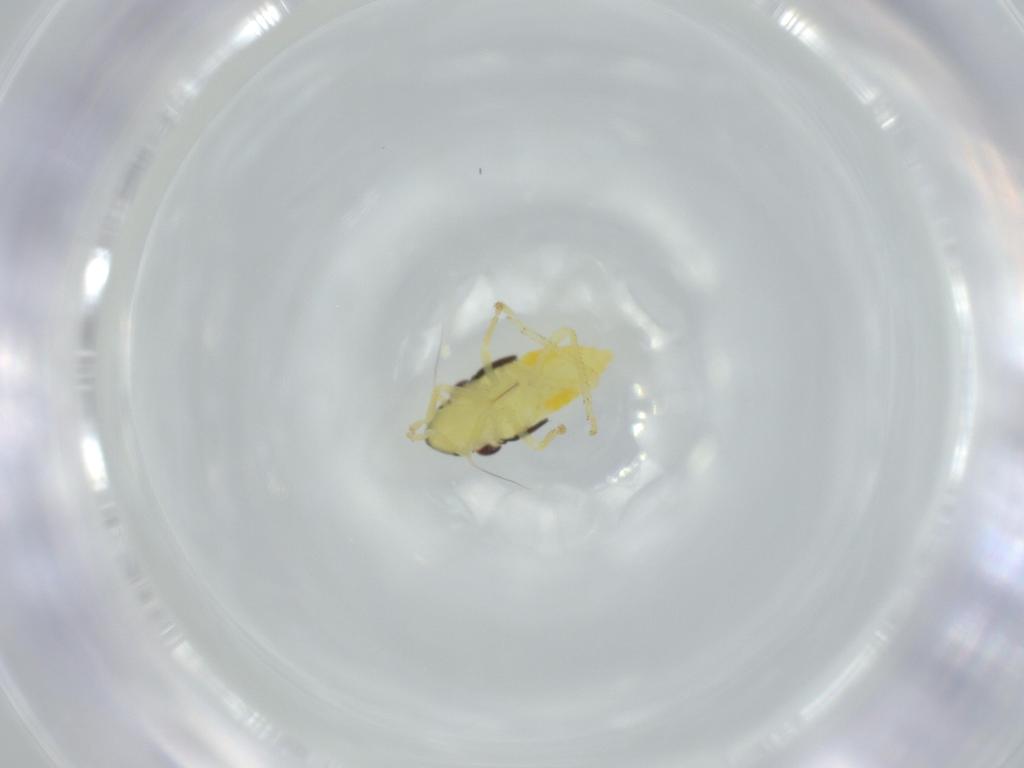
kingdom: Animalia
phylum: Arthropoda
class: Insecta
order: Hemiptera
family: Cicadellidae
